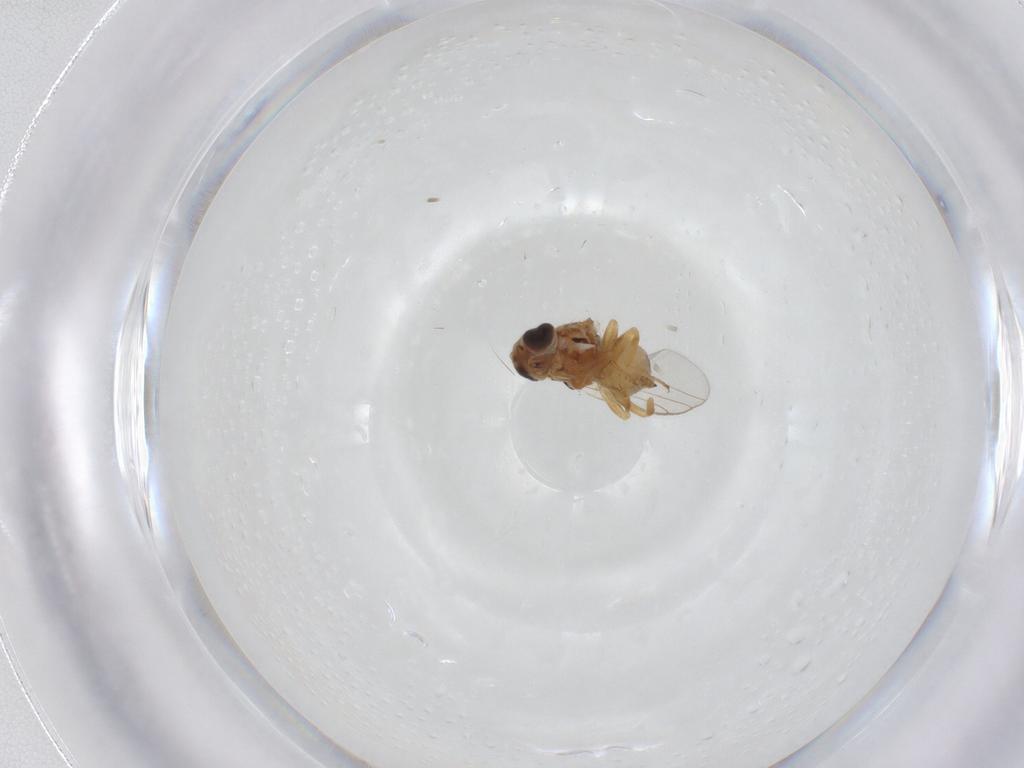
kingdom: Animalia
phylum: Arthropoda
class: Insecta
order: Diptera
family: Chloropidae
